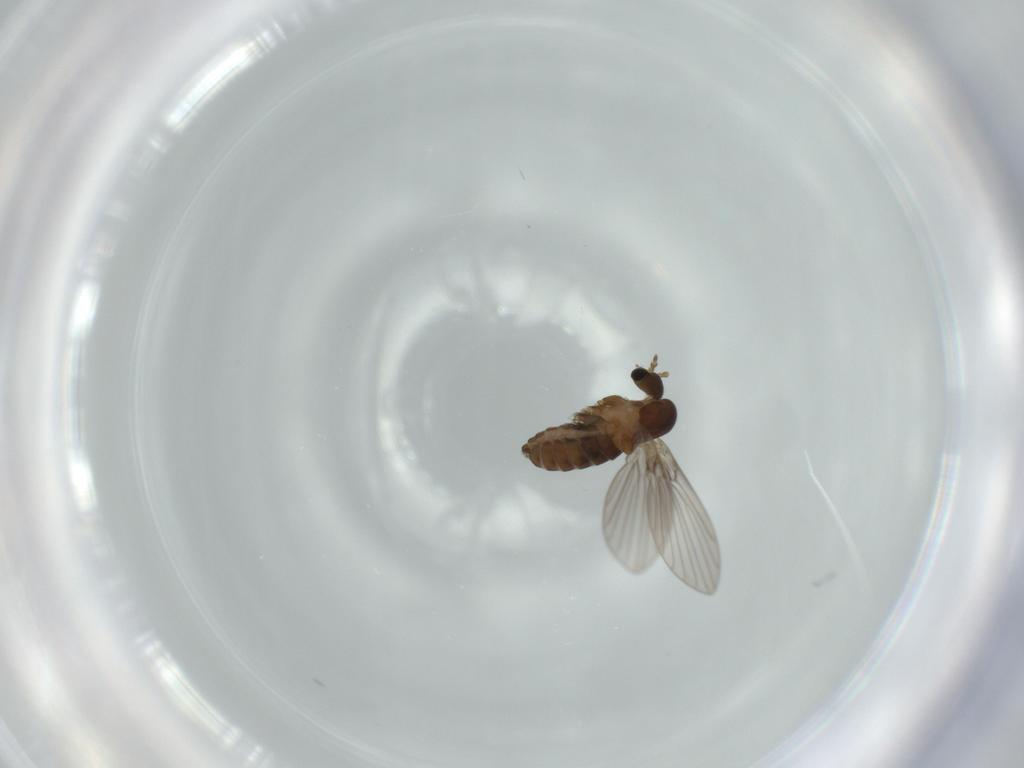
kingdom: Animalia
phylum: Arthropoda
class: Insecta
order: Diptera
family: Psychodidae
